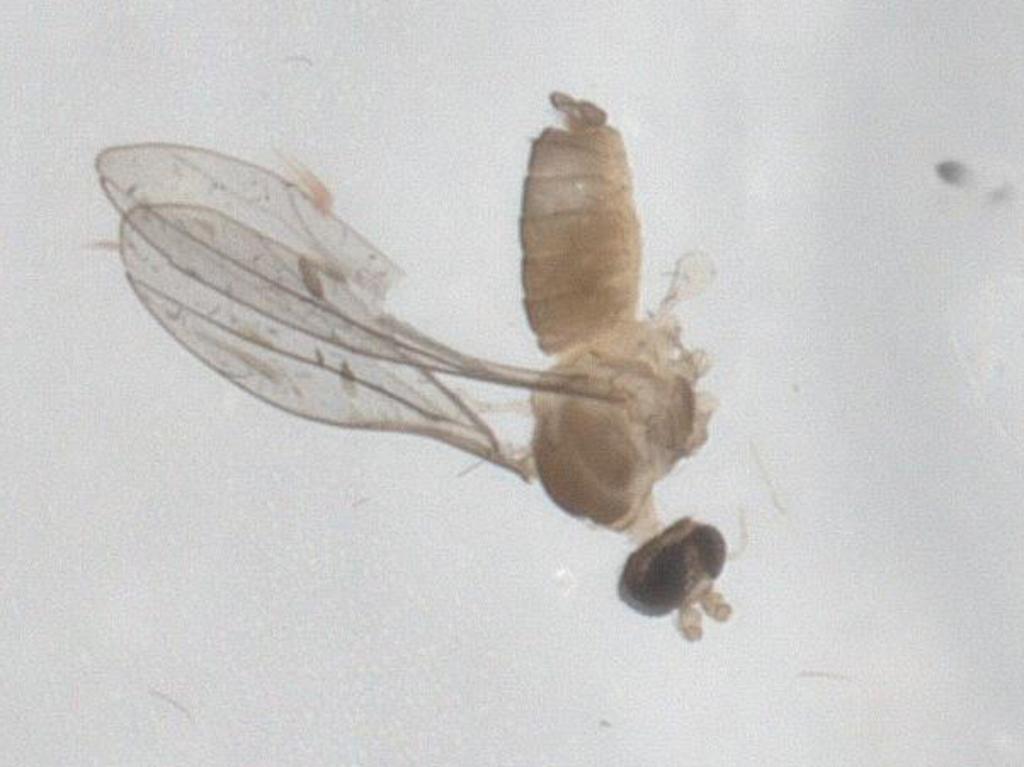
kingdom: Animalia
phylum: Arthropoda
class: Insecta
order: Diptera
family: Cecidomyiidae
